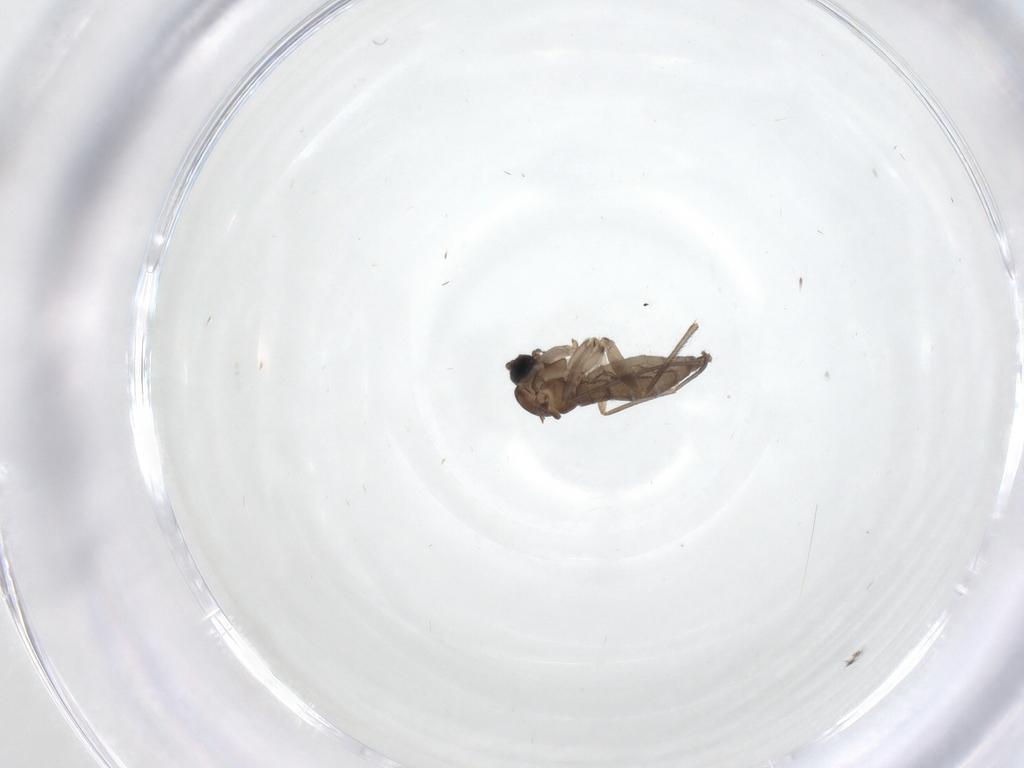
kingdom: Animalia
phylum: Arthropoda
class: Insecta
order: Diptera
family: Sciaridae
